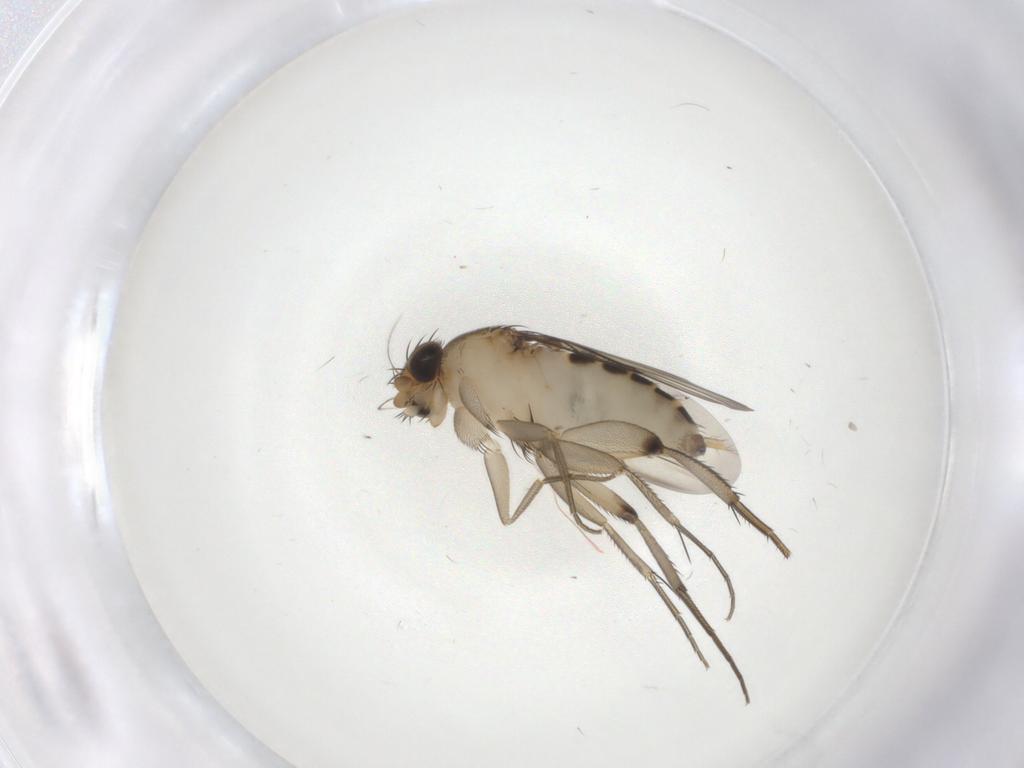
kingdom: Animalia
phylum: Arthropoda
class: Insecta
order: Diptera
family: Phoridae
